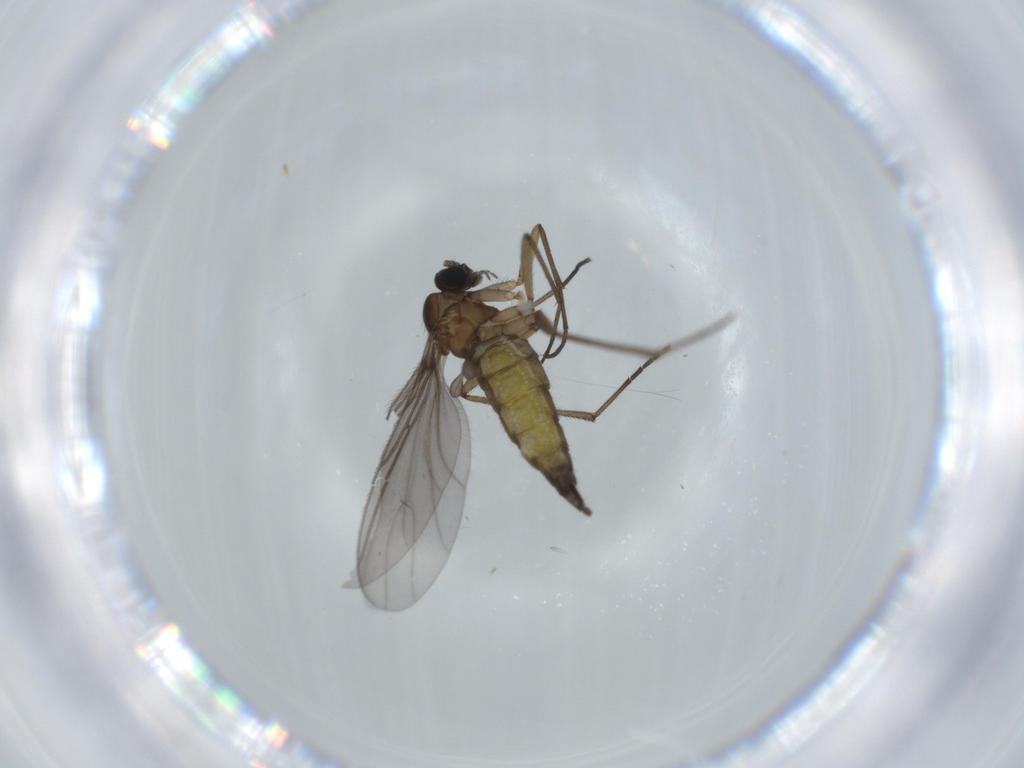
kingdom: Animalia
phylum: Arthropoda
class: Insecta
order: Diptera
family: Sciaridae
